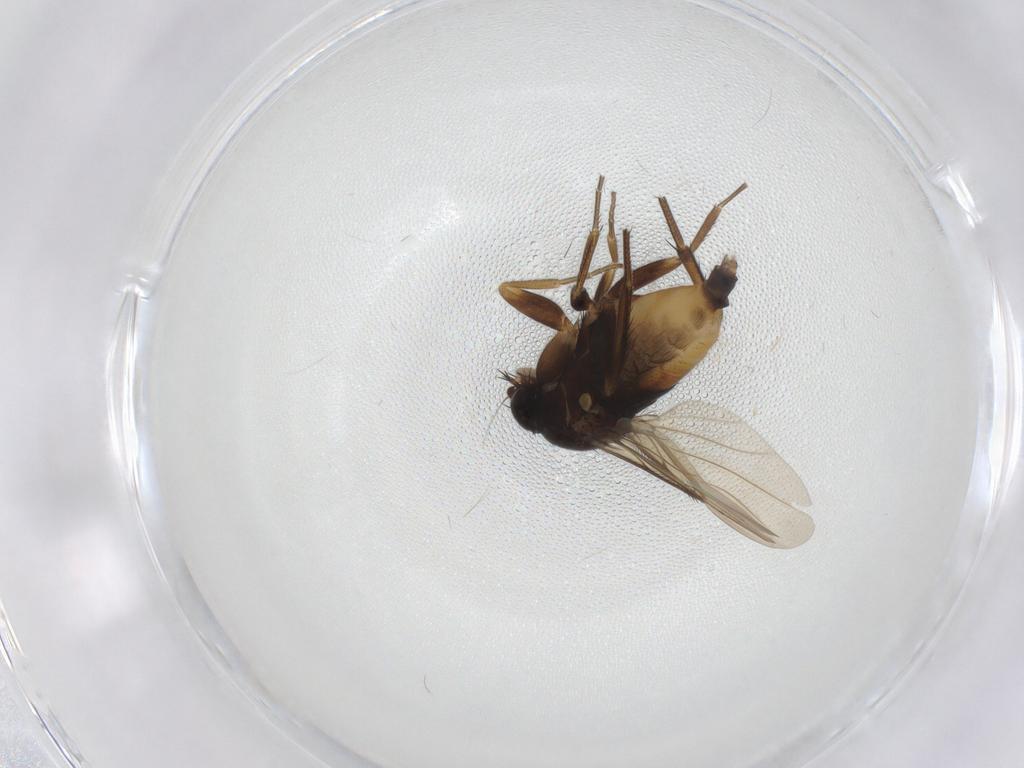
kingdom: Animalia
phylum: Arthropoda
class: Insecta
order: Diptera
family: Phoridae
